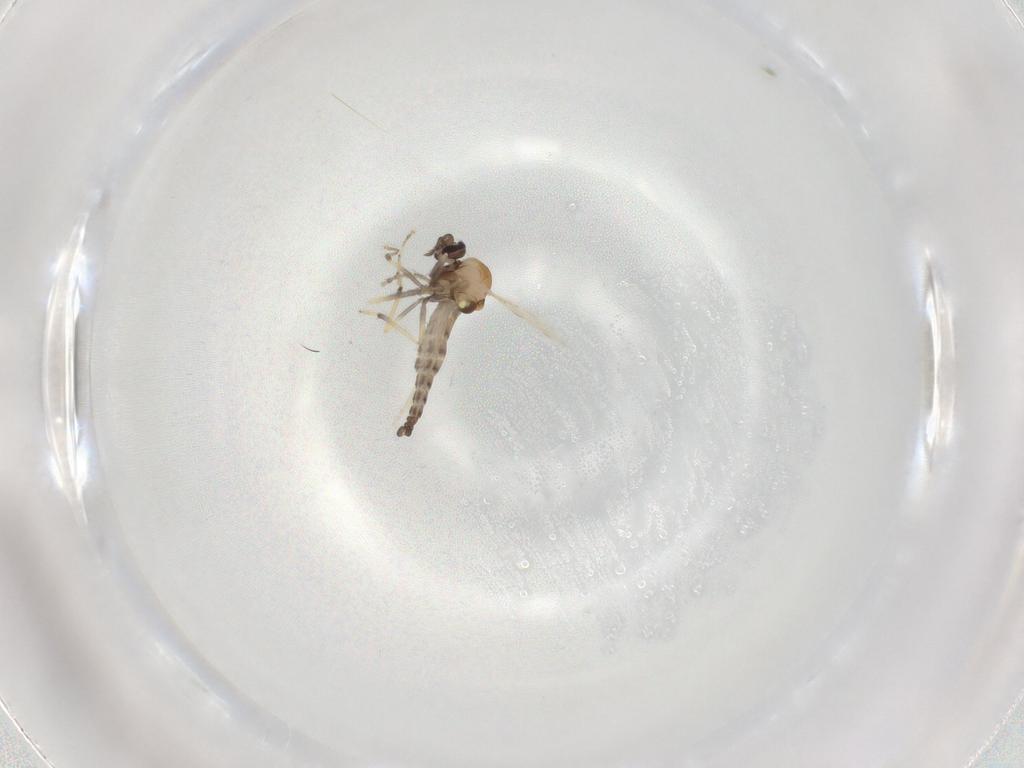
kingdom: Animalia
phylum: Arthropoda
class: Insecta
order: Diptera
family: Ceratopogonidae
